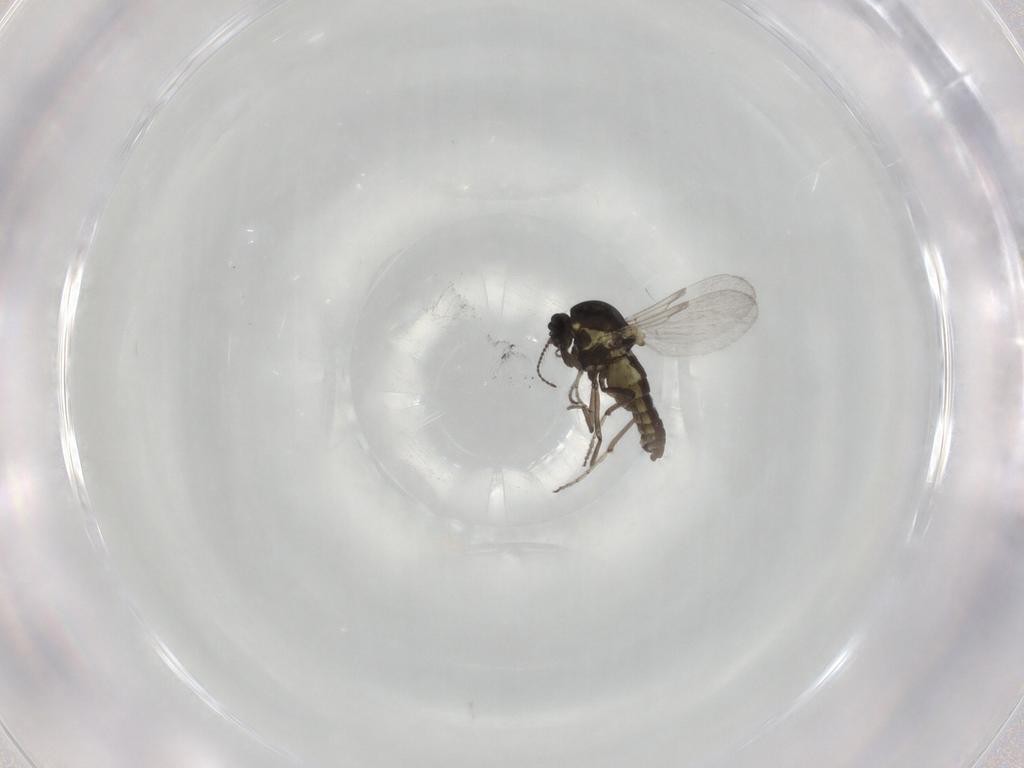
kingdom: Animalia
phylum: Arthropoda
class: Insecta
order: Diptera
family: Ceratopogonidae
